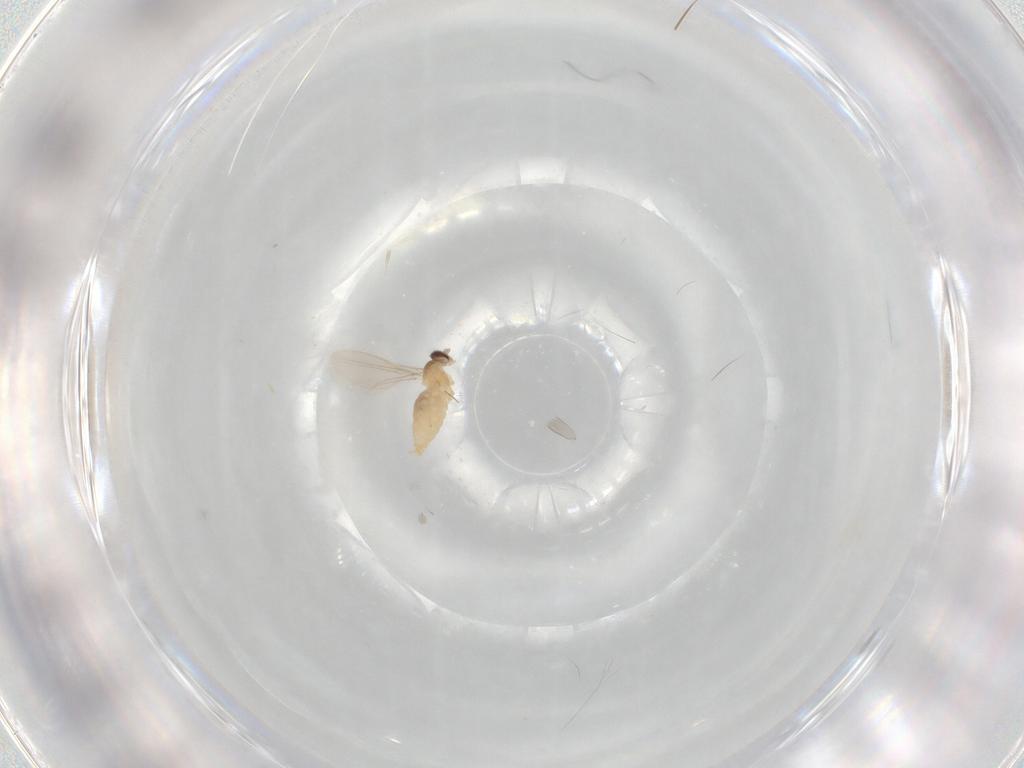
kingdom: Animalia
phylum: Arthropoda
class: Insecta
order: Diptera
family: Cecidomyiidae
